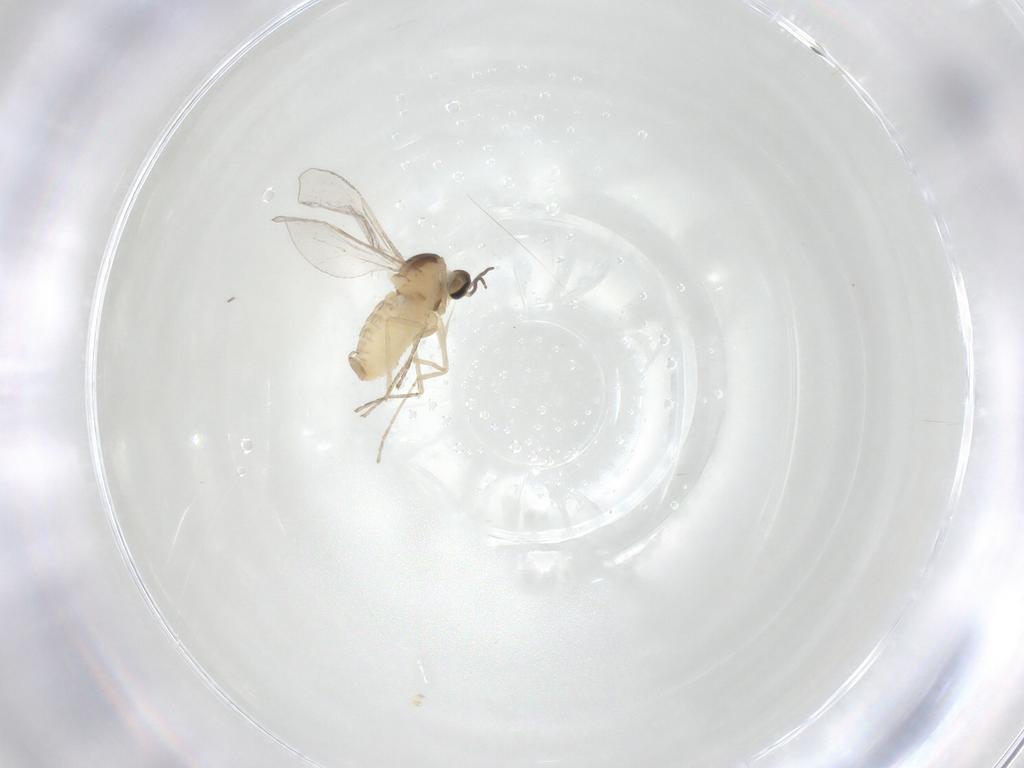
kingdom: Animalia
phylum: Arthropoda
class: Insecta
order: Diptera
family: Cecidomyiidae
